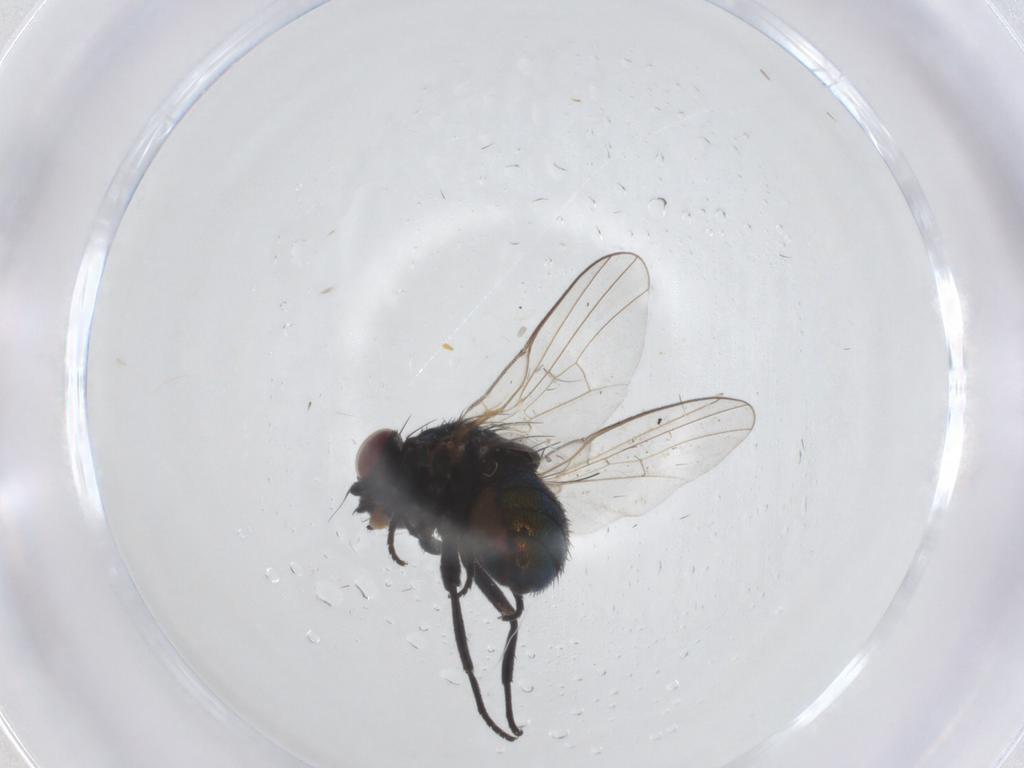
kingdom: Animalia
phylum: Arthropoda
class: Insecta
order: Diptera
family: Agromyzidae
